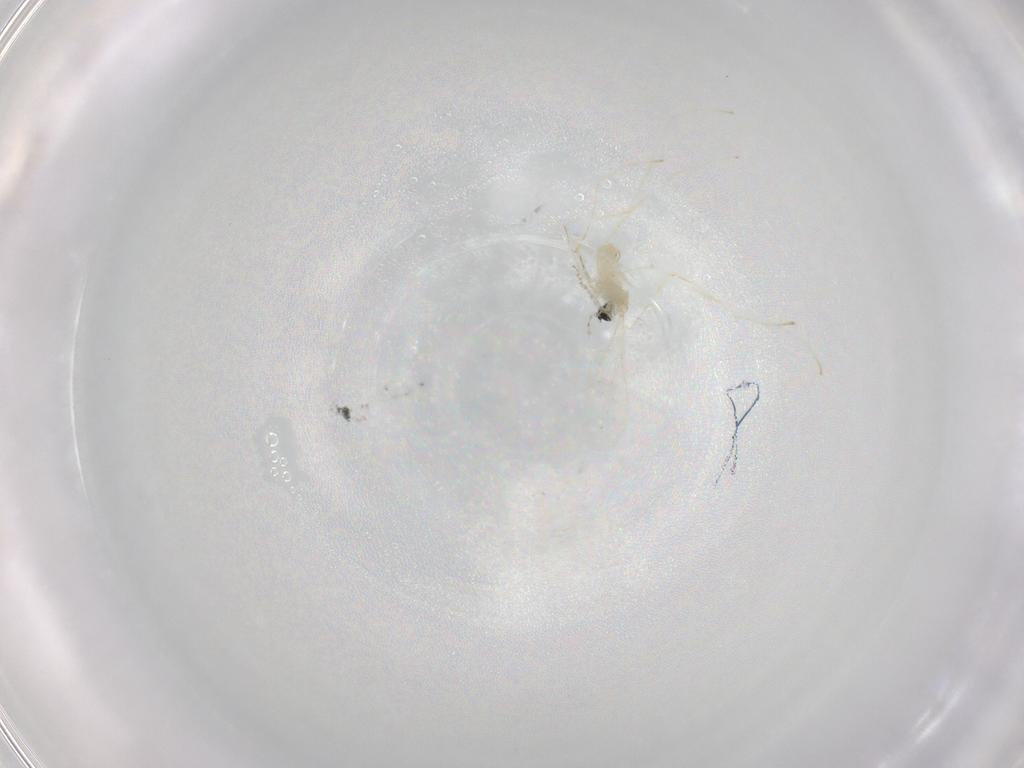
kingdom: Animalia
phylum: Arthropoda
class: Insecta
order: Diptera
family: Cecidomyiidae
